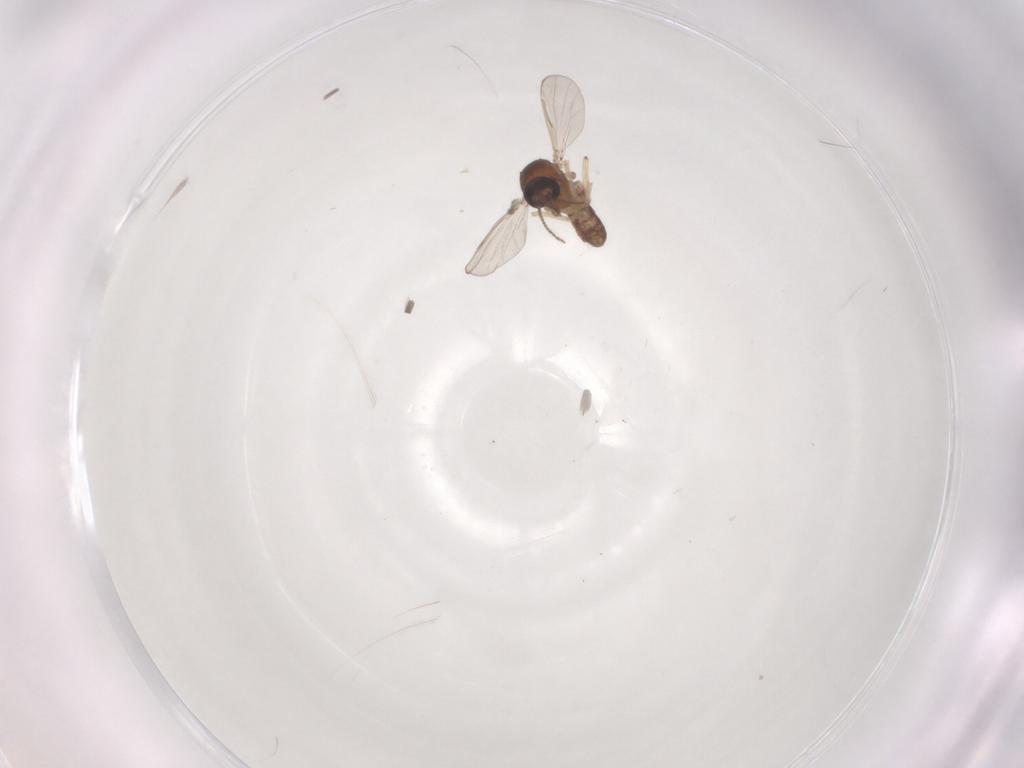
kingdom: Animalia
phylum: Arthropoda
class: Insecta
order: Diptera
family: Ceratopogonidae
